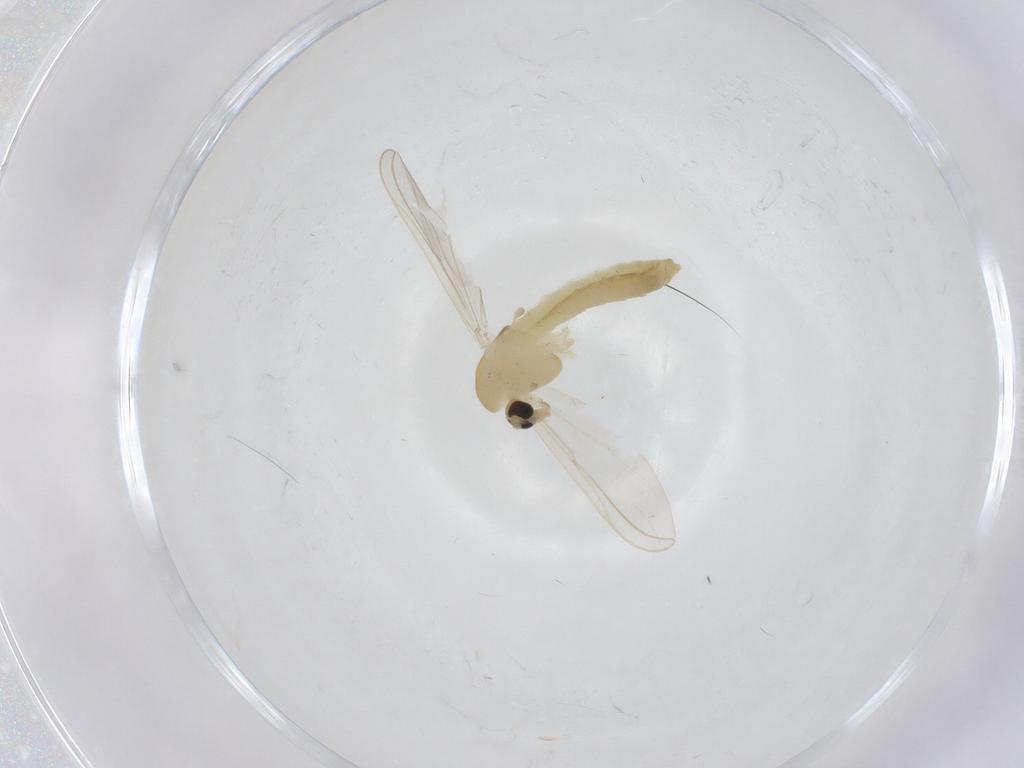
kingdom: Animalia
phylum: Arthropoda
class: Insecta
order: Diptera
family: Chironomidae
